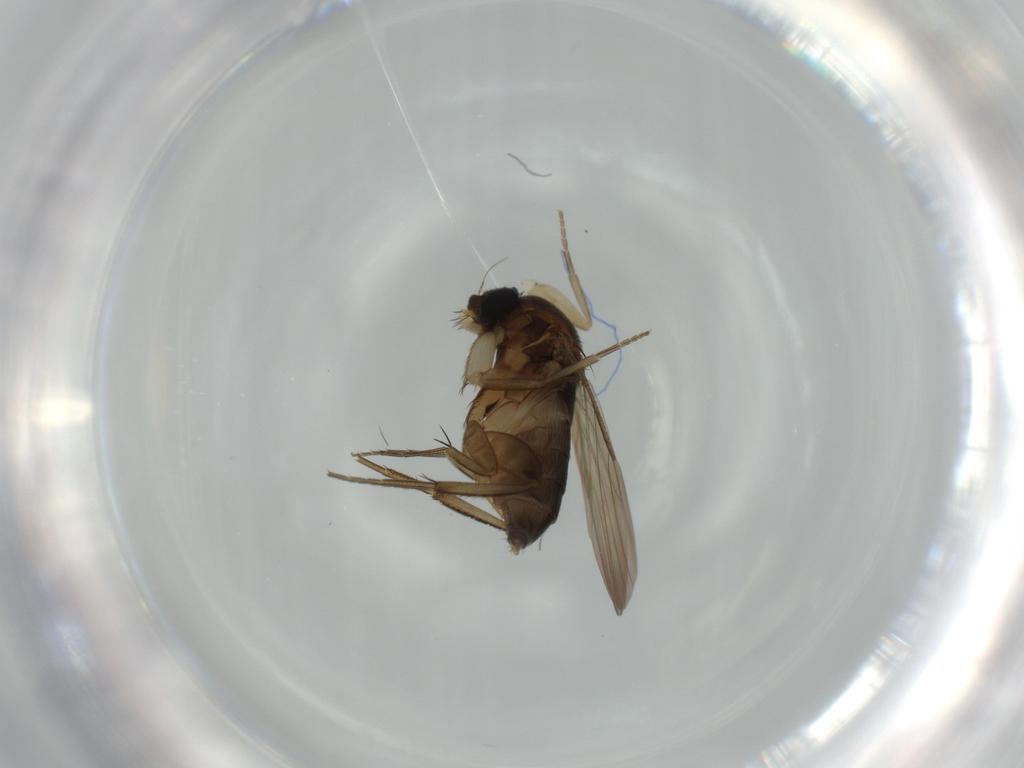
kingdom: Animalia
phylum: Arthropoda
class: Insecta
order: Diptera
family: Phoridae
